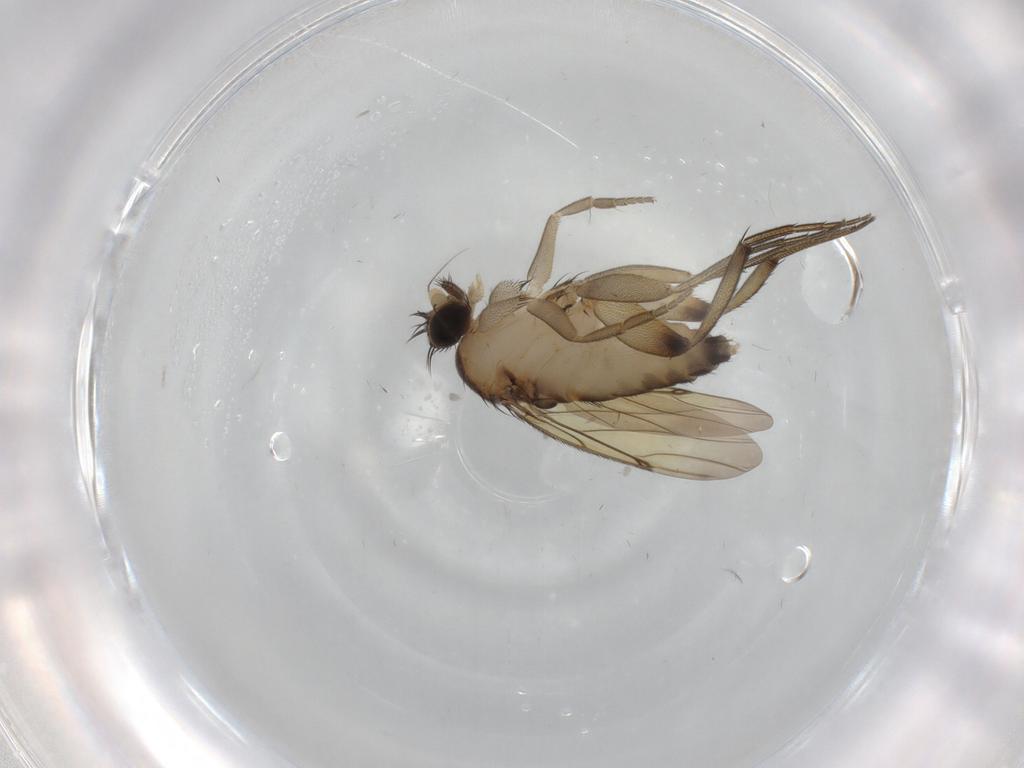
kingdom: Animalia
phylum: Arthropoda
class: Insecta
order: Diptera
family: Phoridae
